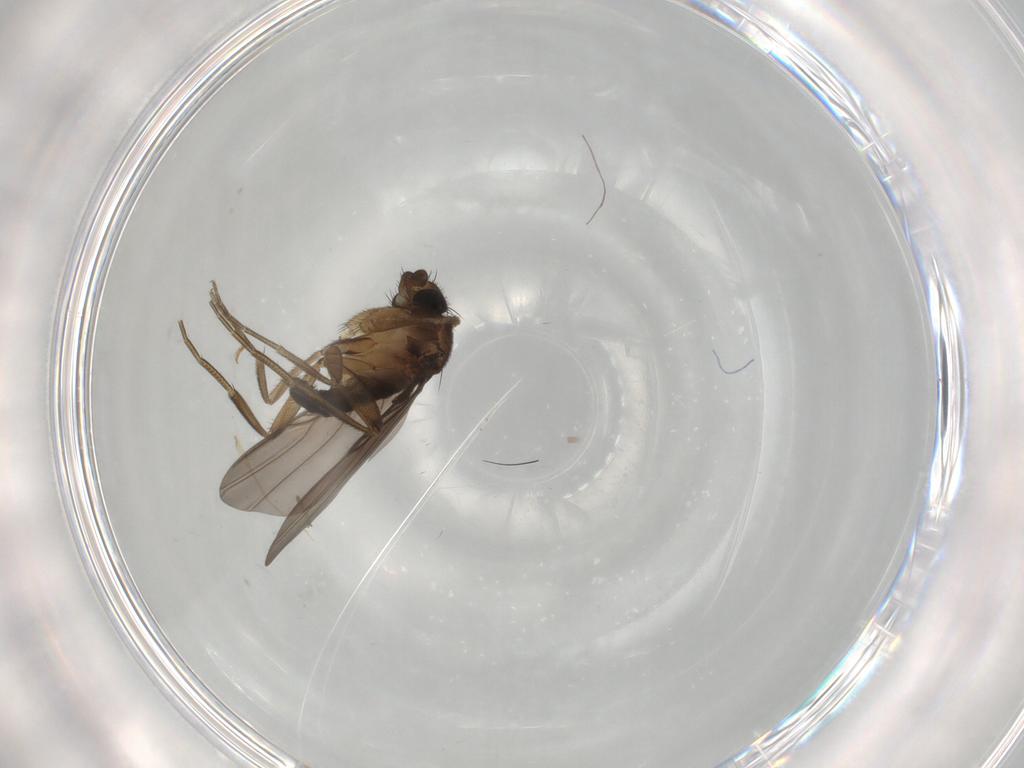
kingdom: Animalia
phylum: Arthropoda
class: Insecta
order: Diptera
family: Phoridae
